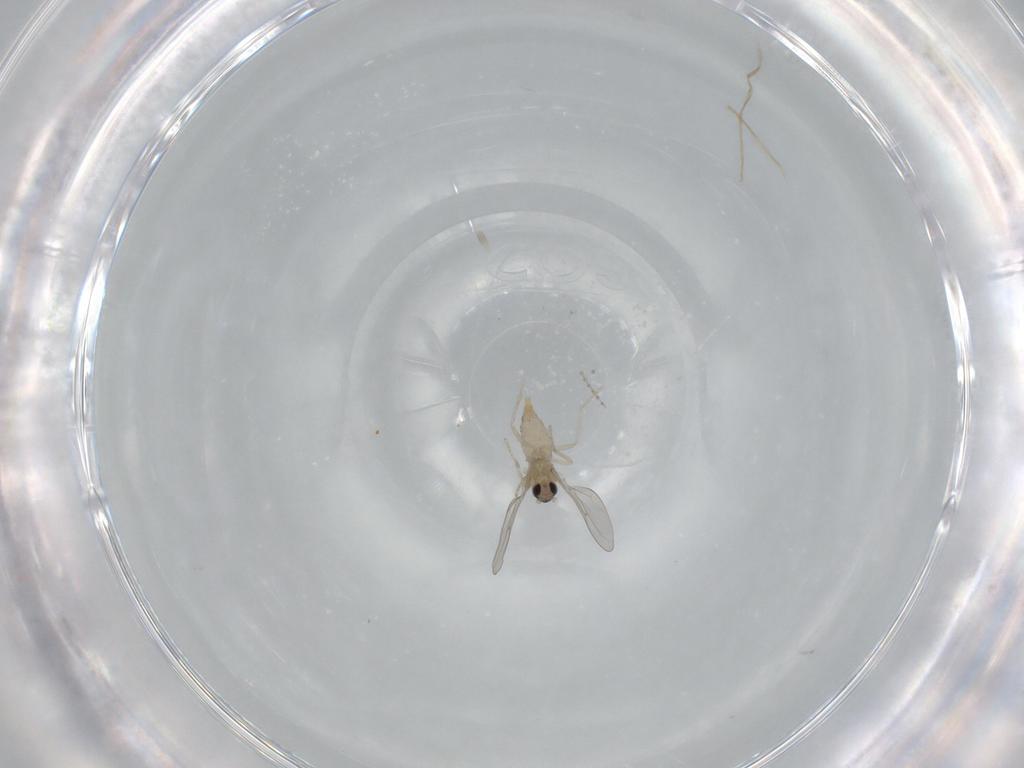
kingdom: Animalia
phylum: Arthropoda
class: Insecta
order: Diptera
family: Cecidomyiidae
